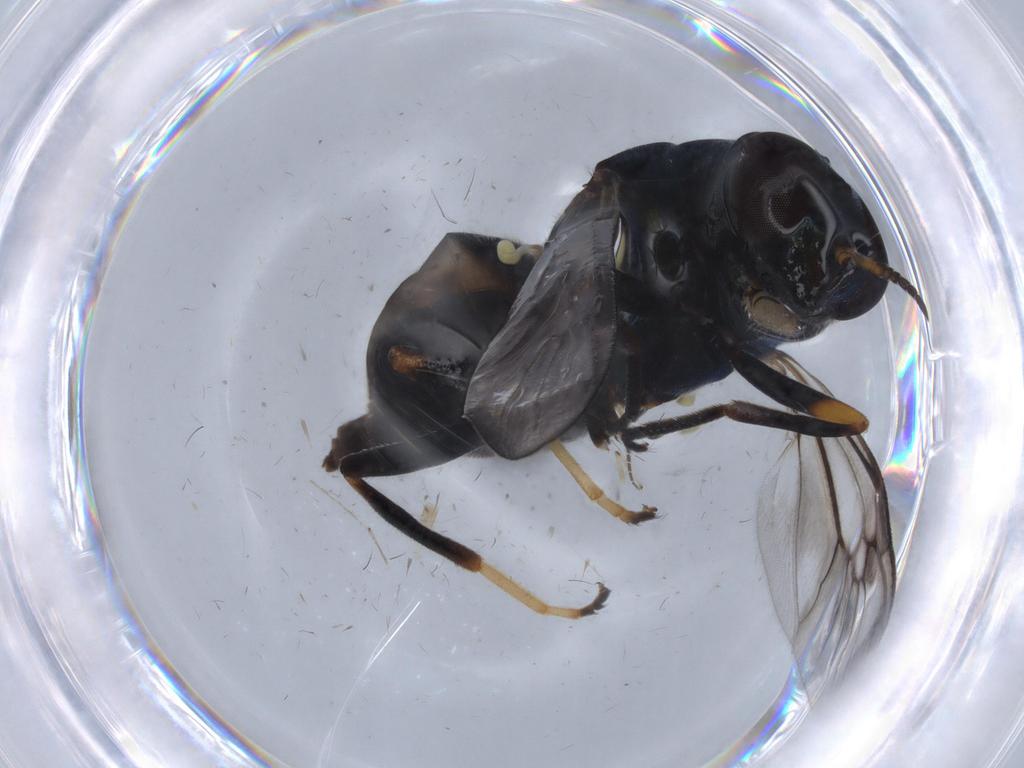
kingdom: Animalia
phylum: Arthropoda
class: Insecta
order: Diptera
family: Stratiomyidae
